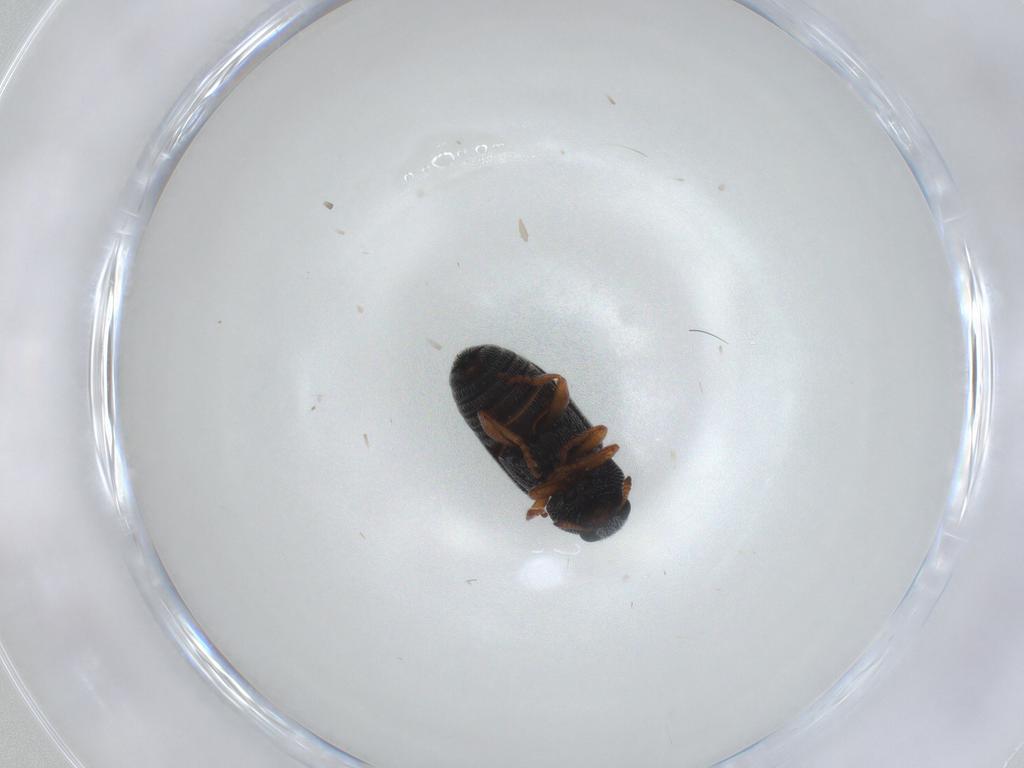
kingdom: Animalia
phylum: Arthropoda
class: Insecta
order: Coleoptera
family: Anthribidae
